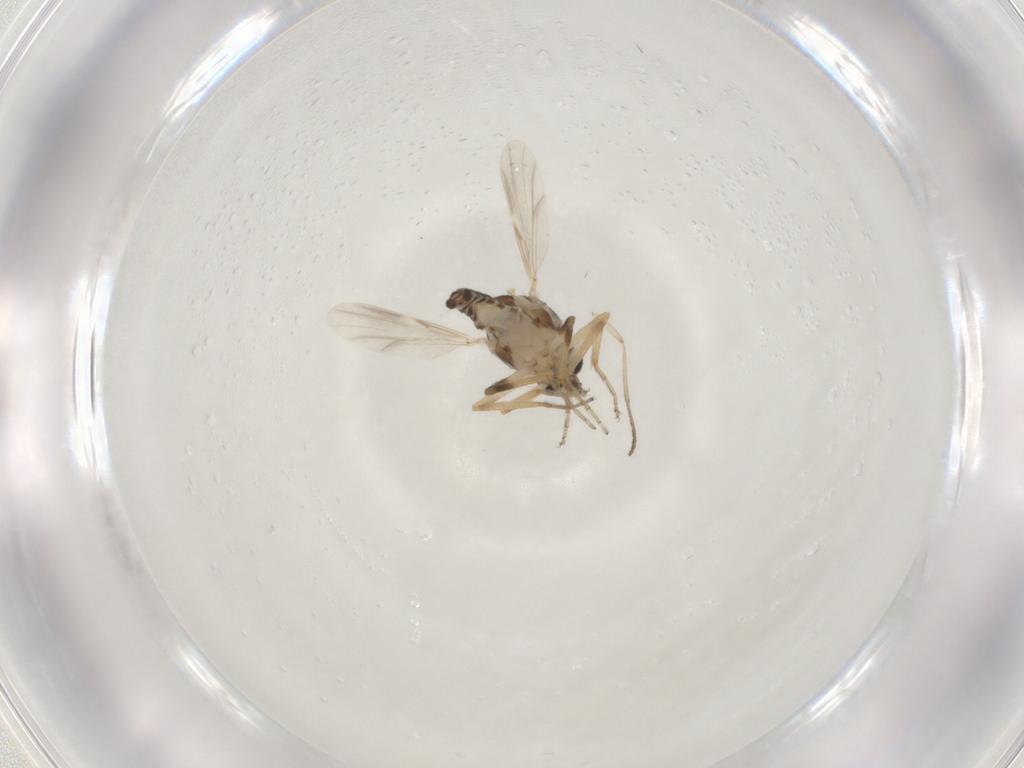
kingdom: Animalia
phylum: Arthropoda
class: Insecta
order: Diptera
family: Ceratopogonidae
